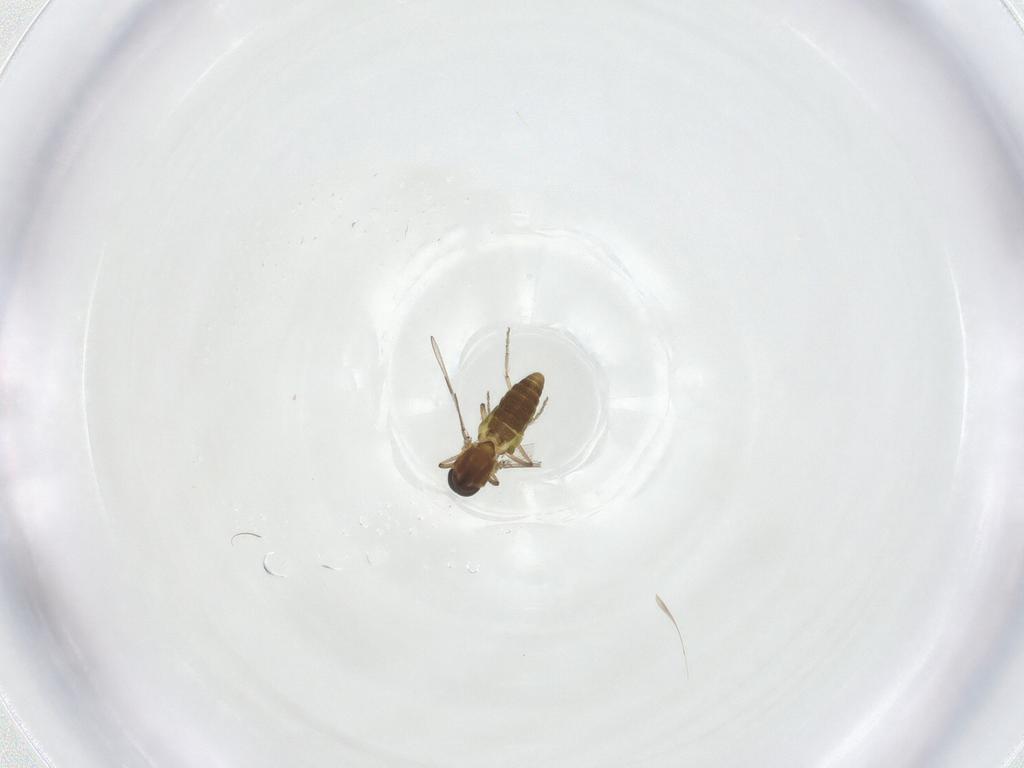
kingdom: Animalia
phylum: Arthropoda
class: Insecta
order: Diptera
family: Ceratopogonidae
